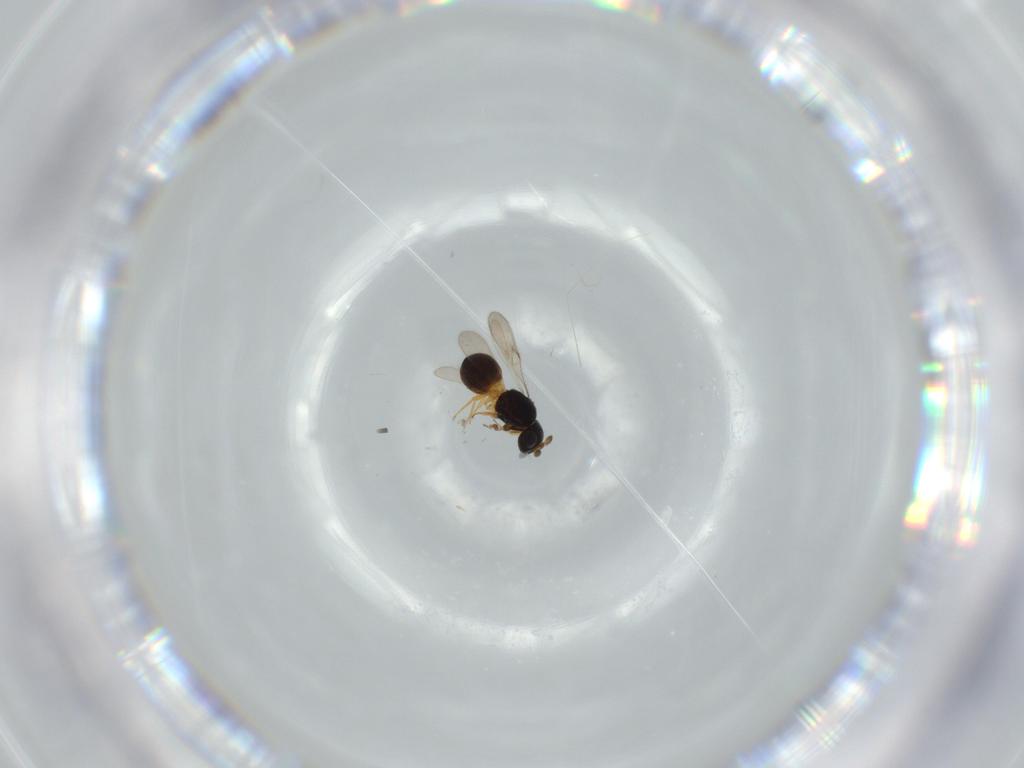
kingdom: Animalia
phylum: Arthropoda
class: Insecta
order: Hymenoptera
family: Scelionidae
